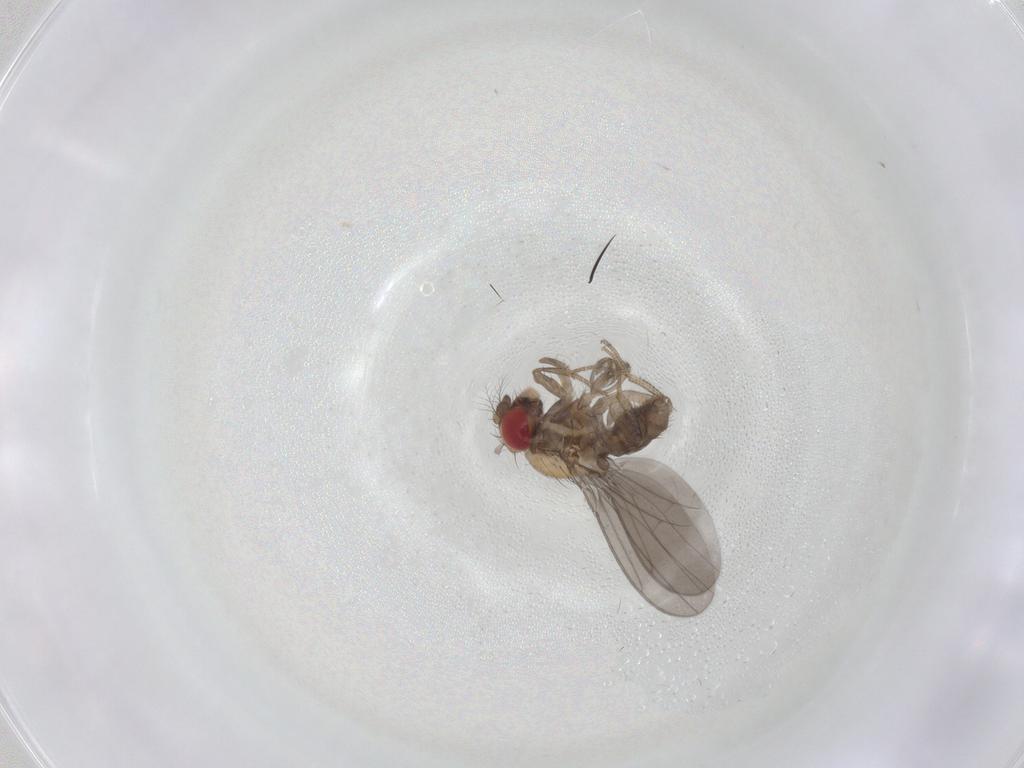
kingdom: Animalia
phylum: Arthropoda
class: Insecta
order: Diptera
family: Drosophilidae
